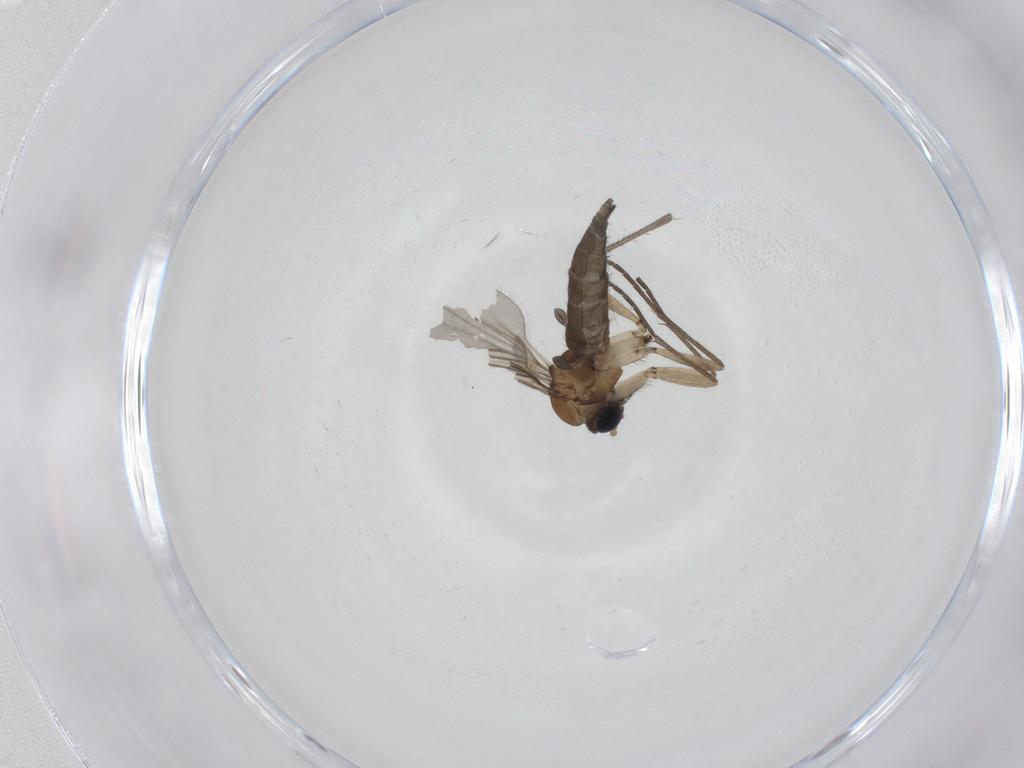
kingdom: Animalia
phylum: Arthropoda
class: Insecta
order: Diptera
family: Sciaridae
